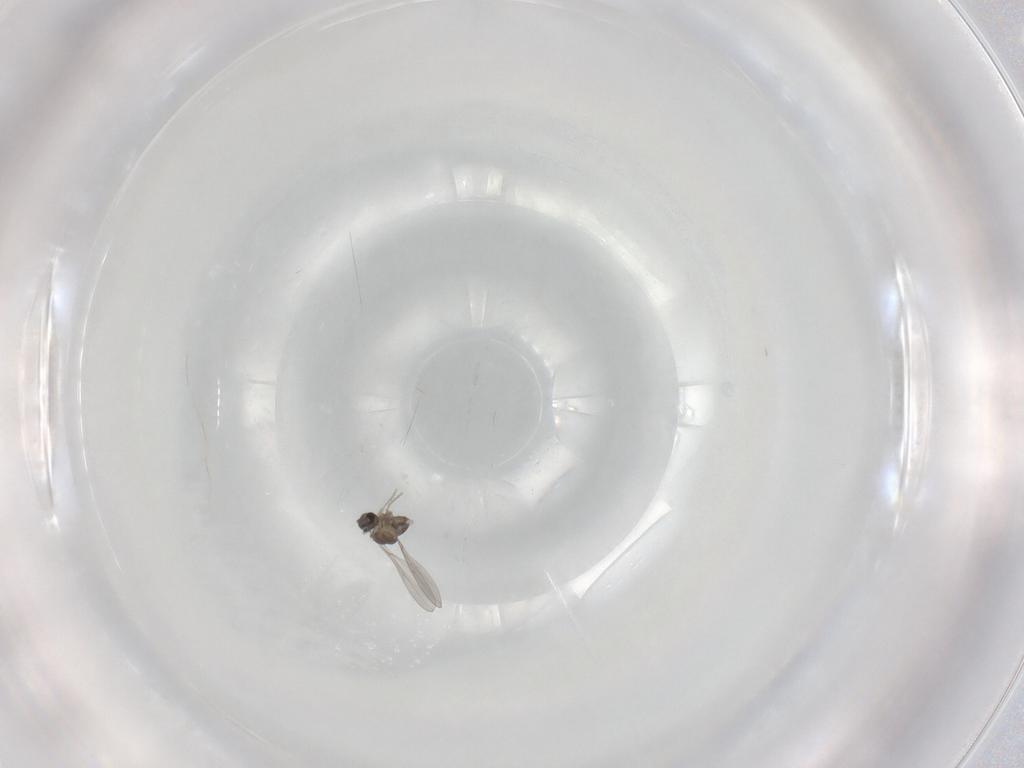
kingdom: Animalia
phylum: Arthropoda
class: Insecta
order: Diptera
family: Cecidomyiidae
